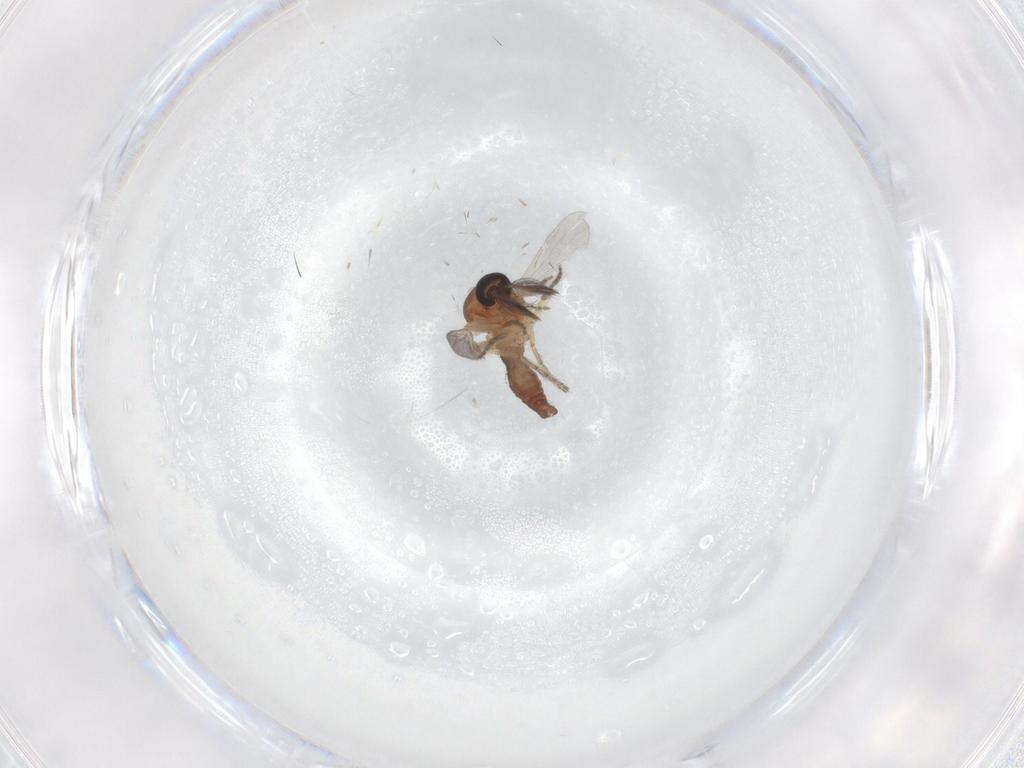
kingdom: Animalia
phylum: Arthropoda
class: Insecta
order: Diptera
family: Ceratopogonidae
